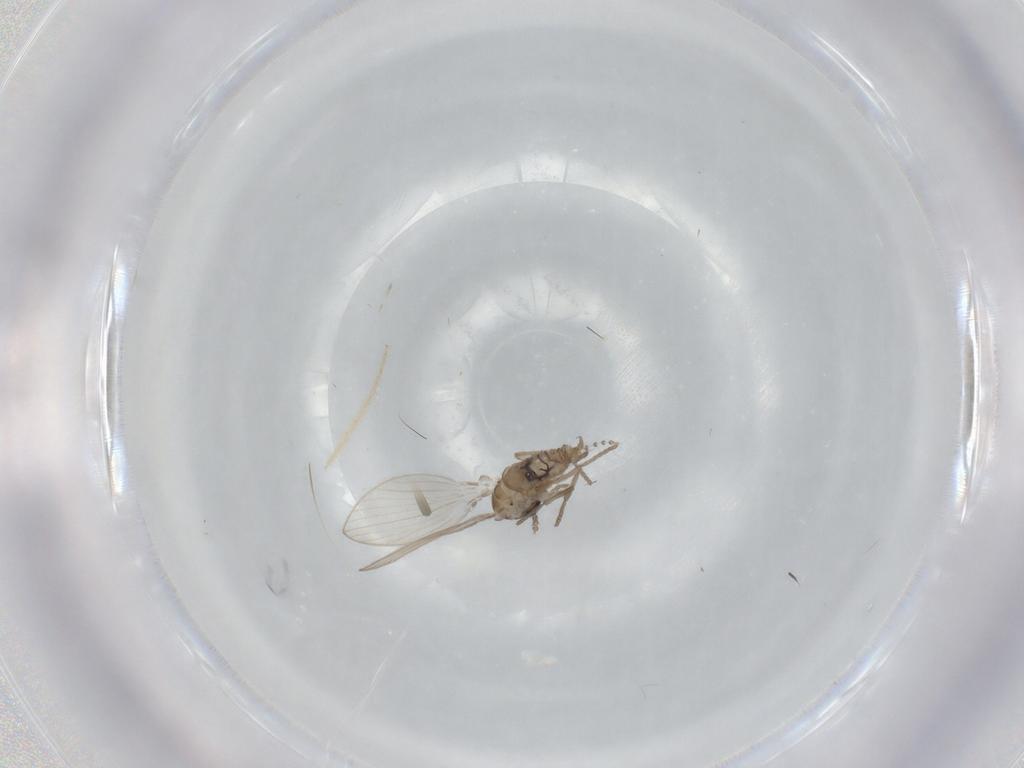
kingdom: Animalia
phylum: Arthropoda
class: Insecta
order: Diptera
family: Psychodidae
